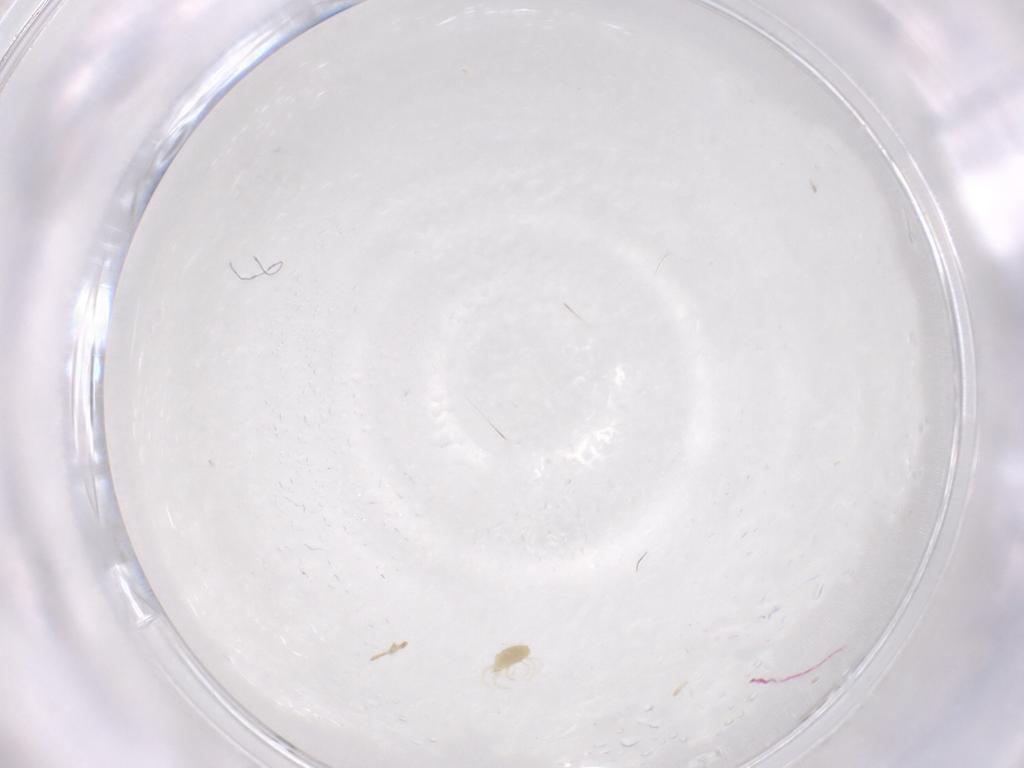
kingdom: Animalia
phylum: Arthropoda
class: Arachnida
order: Trombidiformes
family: Tetranychidae
